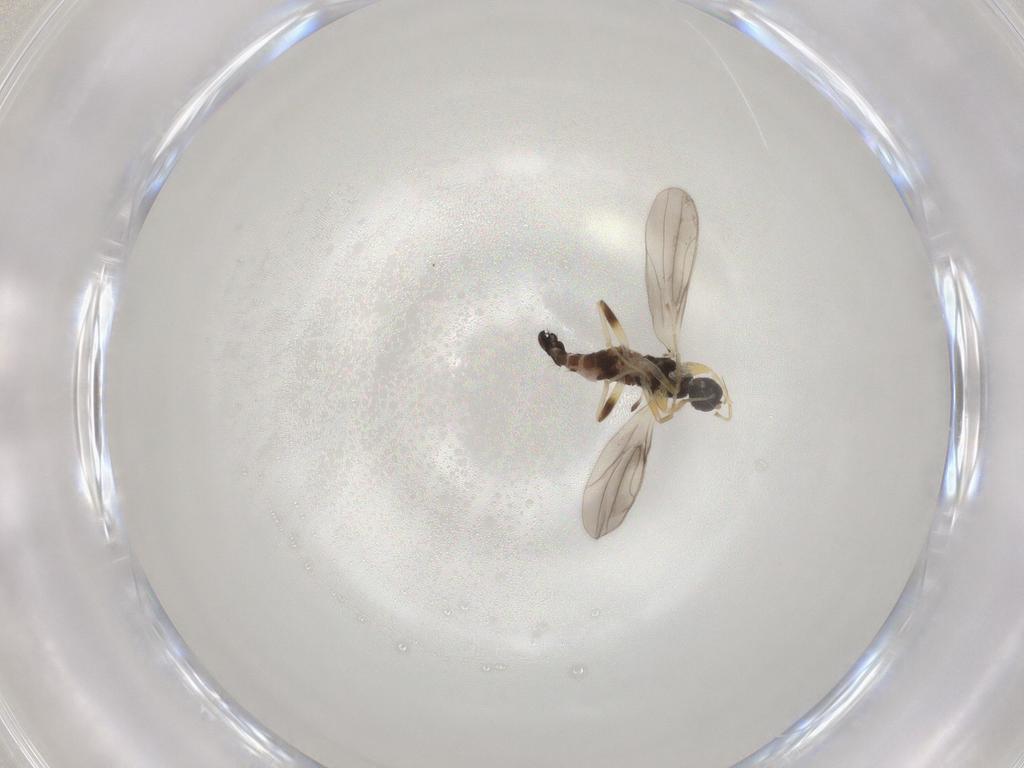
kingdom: Animalia
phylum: Arthropoda
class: Insecta
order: Diptera
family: Hybotidae
